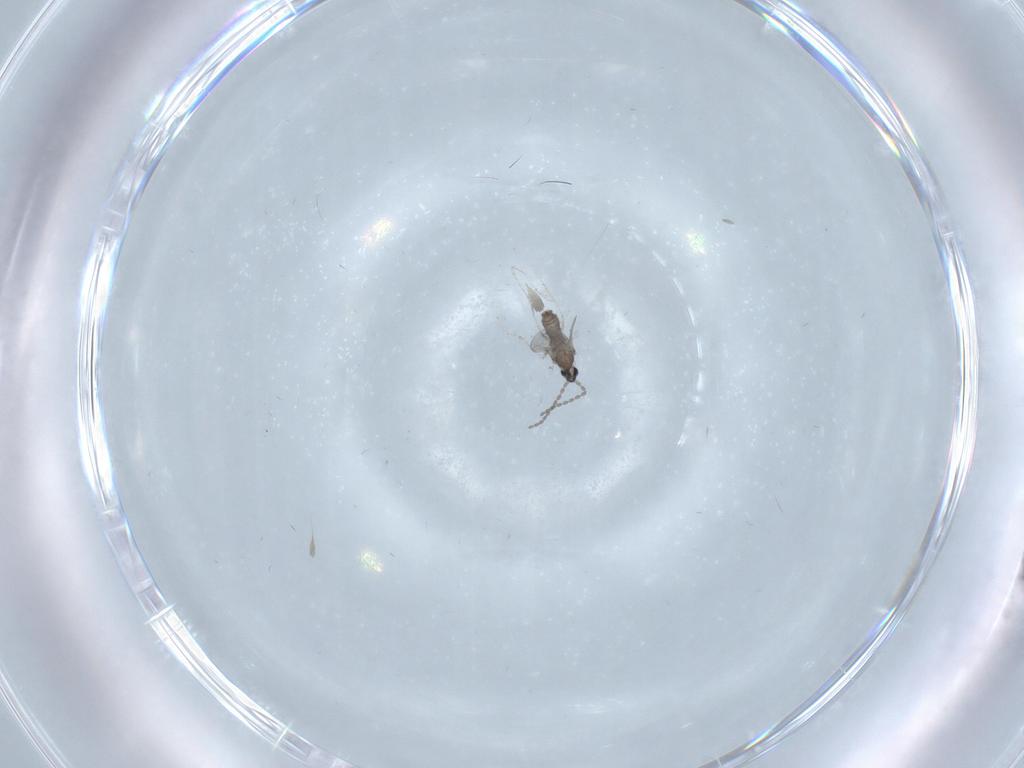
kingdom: Animalia
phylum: Arthropoda
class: Insecta
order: Diptera
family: Cecidomyiidae
